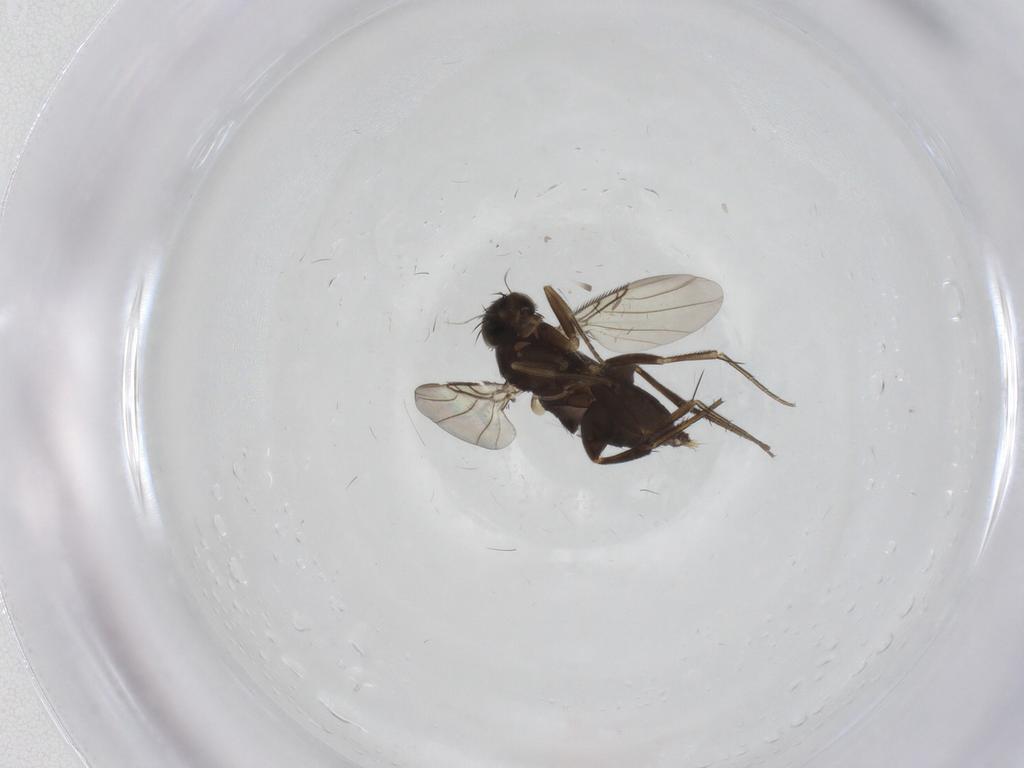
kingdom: Animalia
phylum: Arthropoda
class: Insecta
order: Diptera
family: Phoridae
